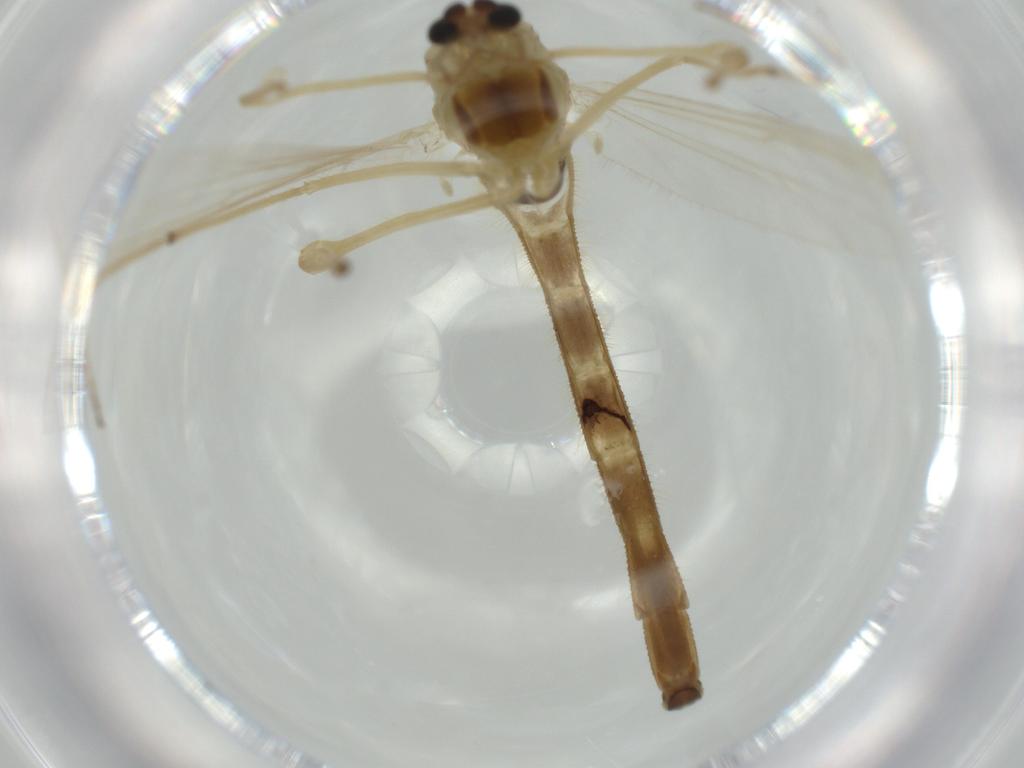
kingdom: Animalia
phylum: Arthropoda
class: Insecta
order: Diptera
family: Chironomidae
